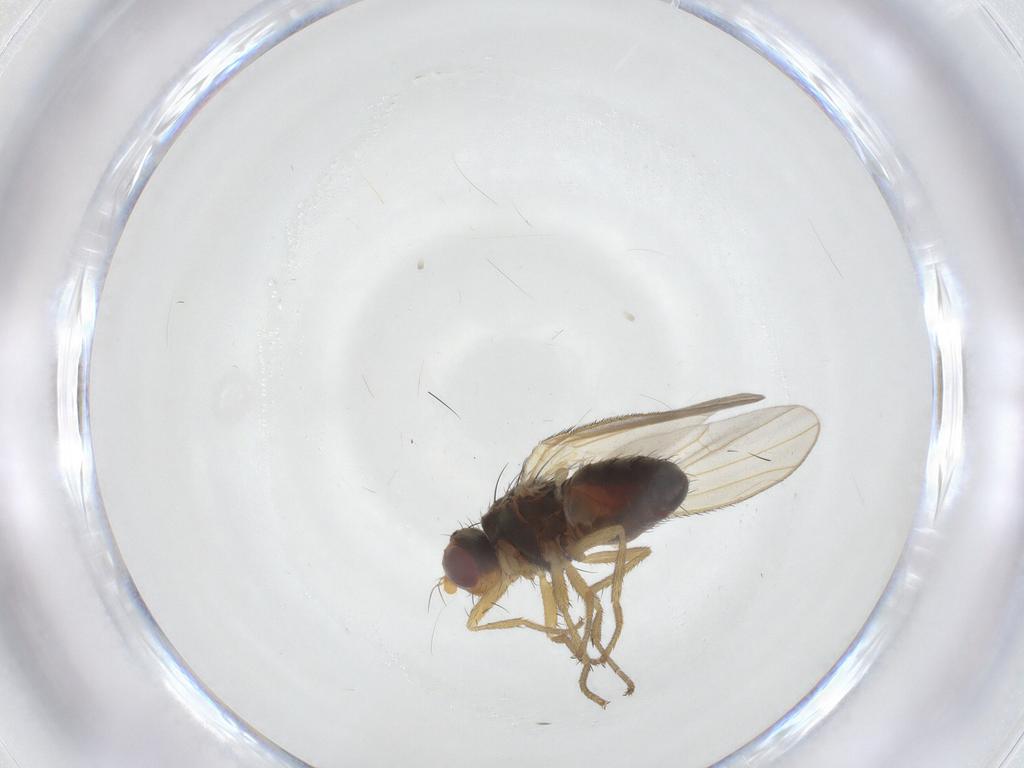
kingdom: Animalia
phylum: Arthropoda
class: Insecta
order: Diptera
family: Heleomyzidae
